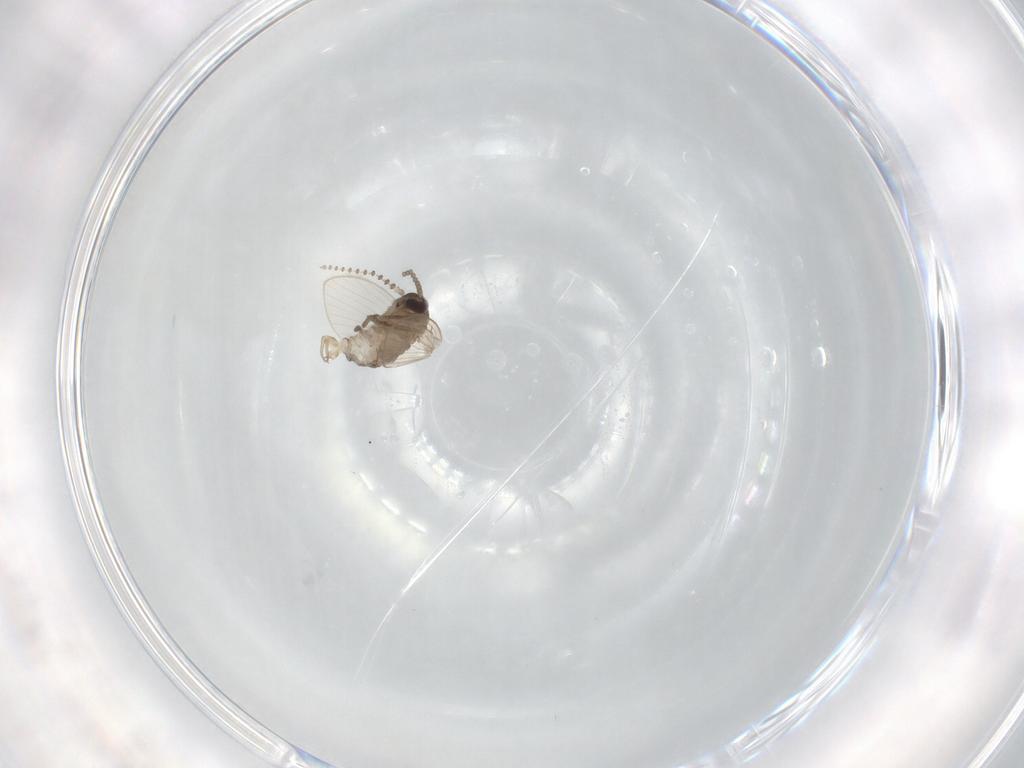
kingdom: Animalia
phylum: Arthropoda
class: Insecta
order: Diptera
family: Psychodidae
